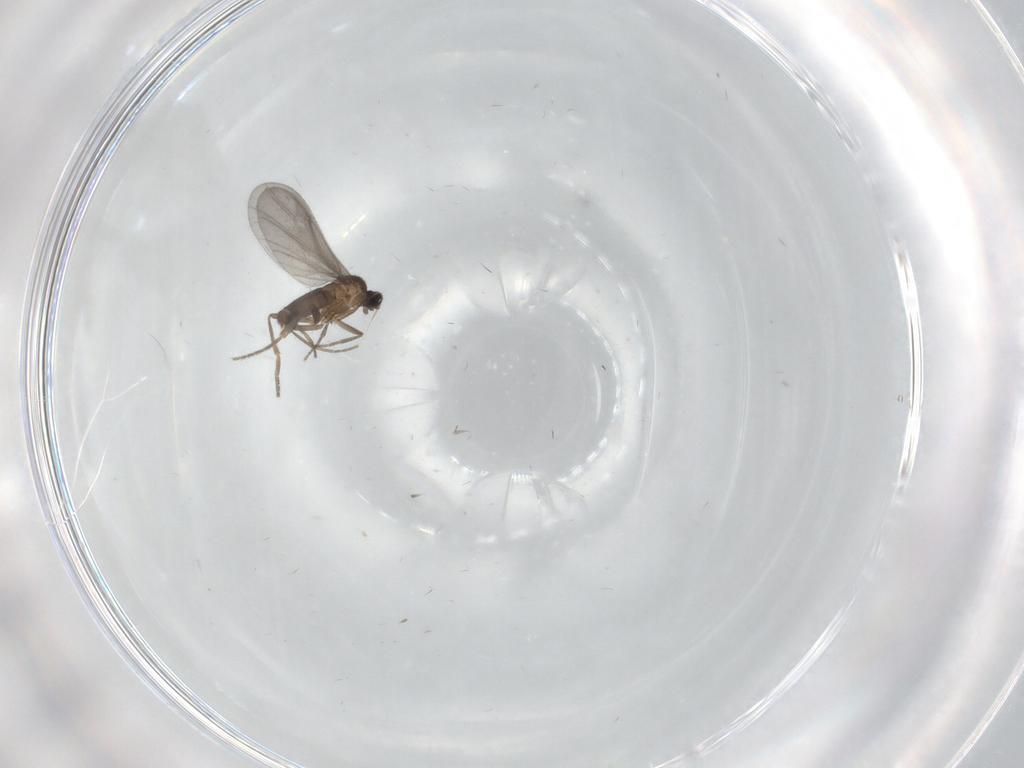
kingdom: Animalia
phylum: Arthropoda
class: Insecta
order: Diptera
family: Phoridae
